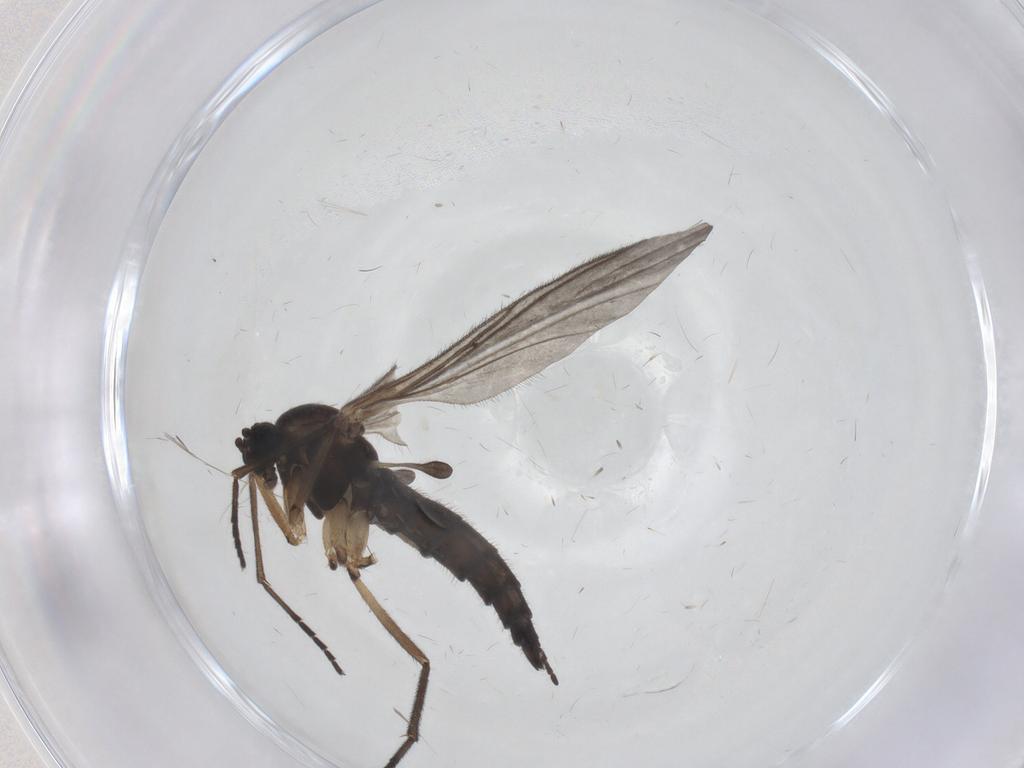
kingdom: Animalia
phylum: Arthropoda
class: Insecta
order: Diptera
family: Sciaridae
